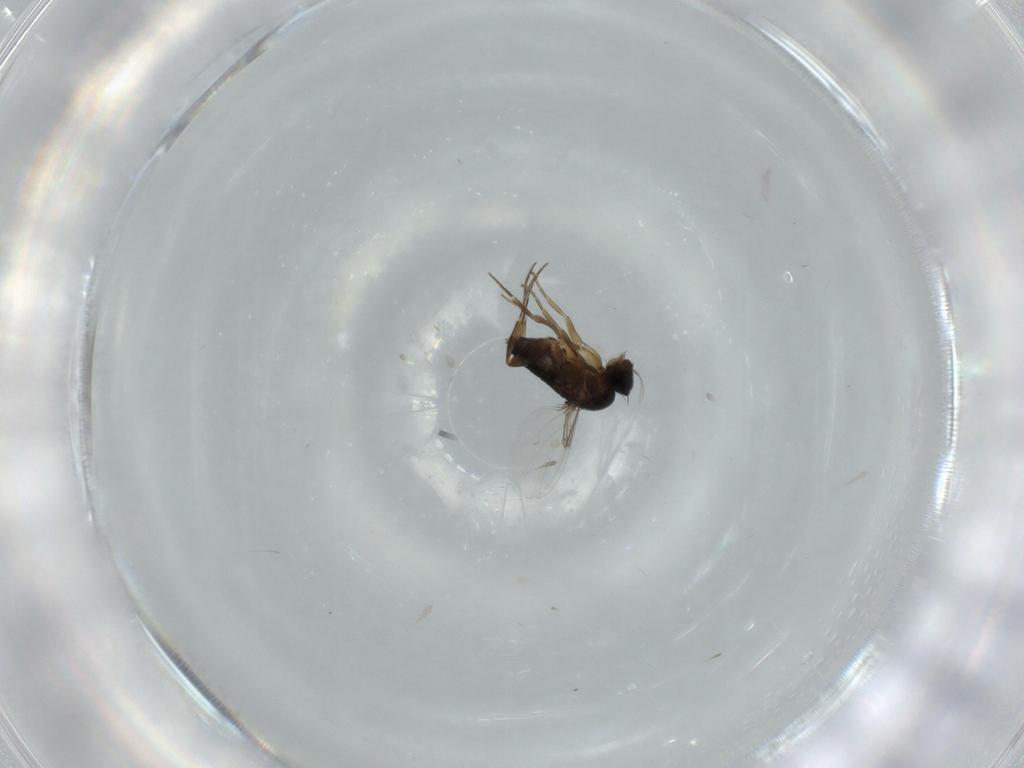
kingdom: Animalia
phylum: Arthropoda
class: Insecta
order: Diptera
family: Phoridae
